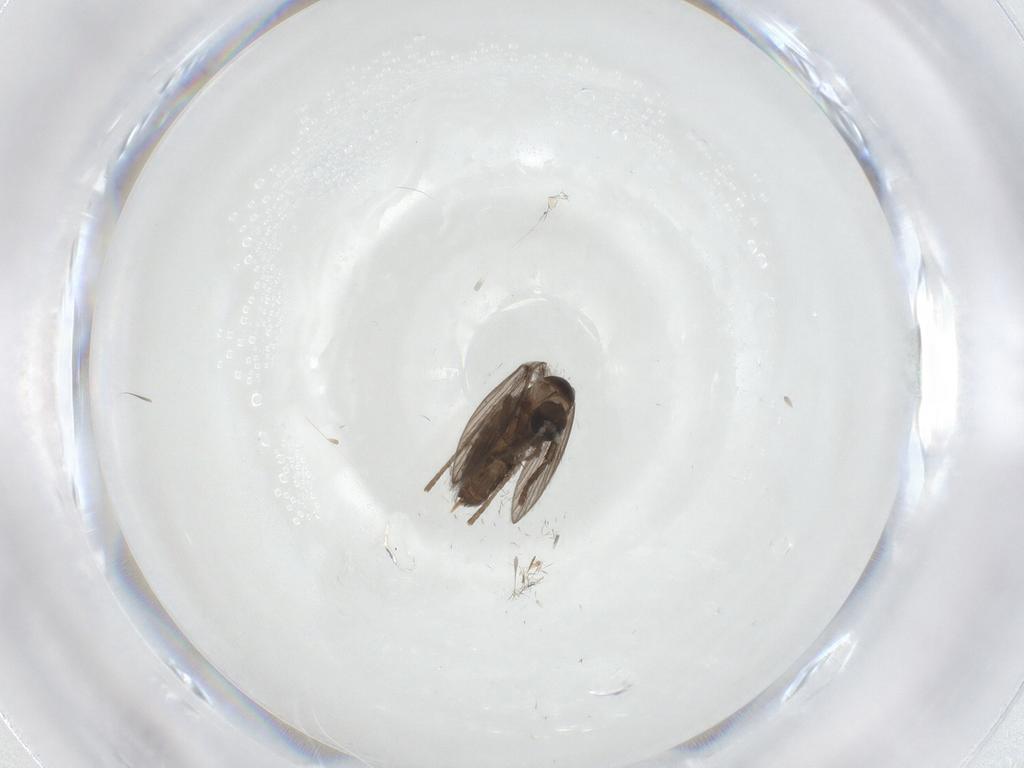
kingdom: Animalia
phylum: Arthropoda
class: Insecta
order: Diptera
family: Psychodidae
